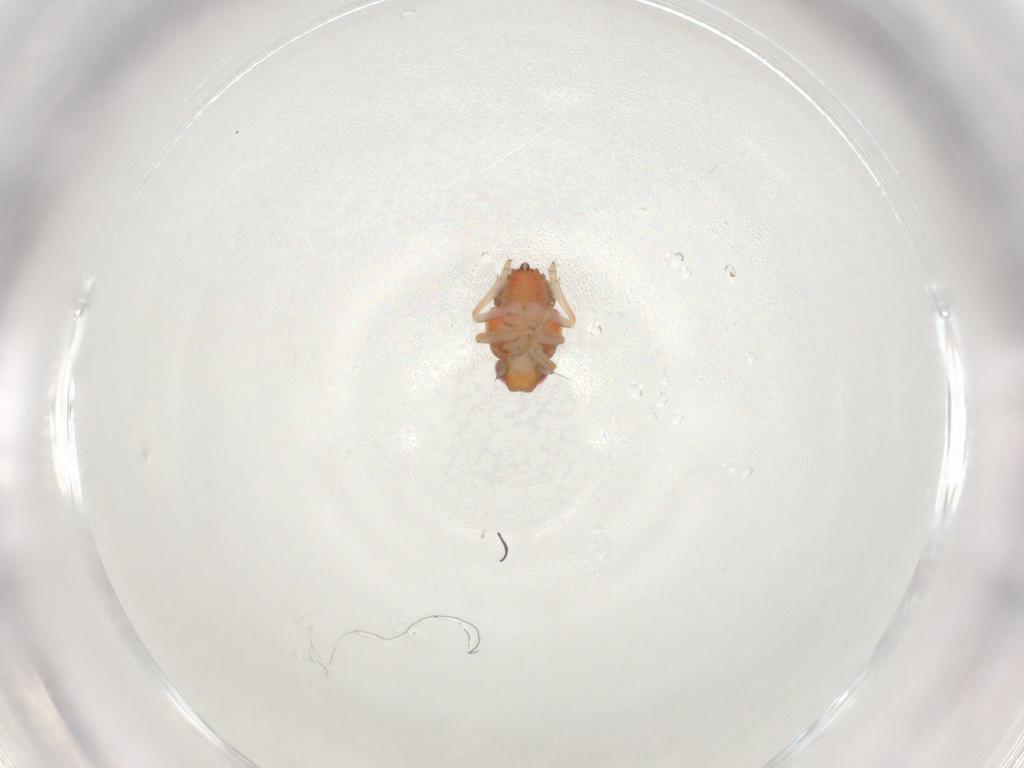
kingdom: Animalia
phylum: Arthropoda
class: Insecta
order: Hemiptera
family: Issidae
